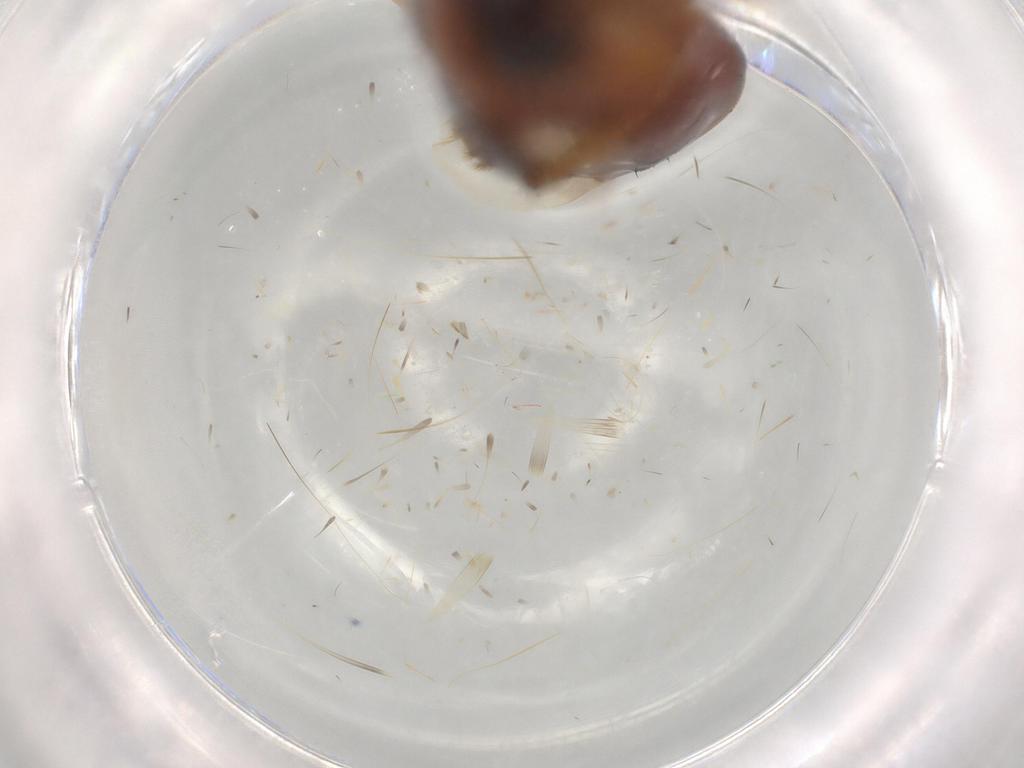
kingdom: Animalia
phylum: Arthropoda
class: Insecta
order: Coleoptera
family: Staphylinidae
